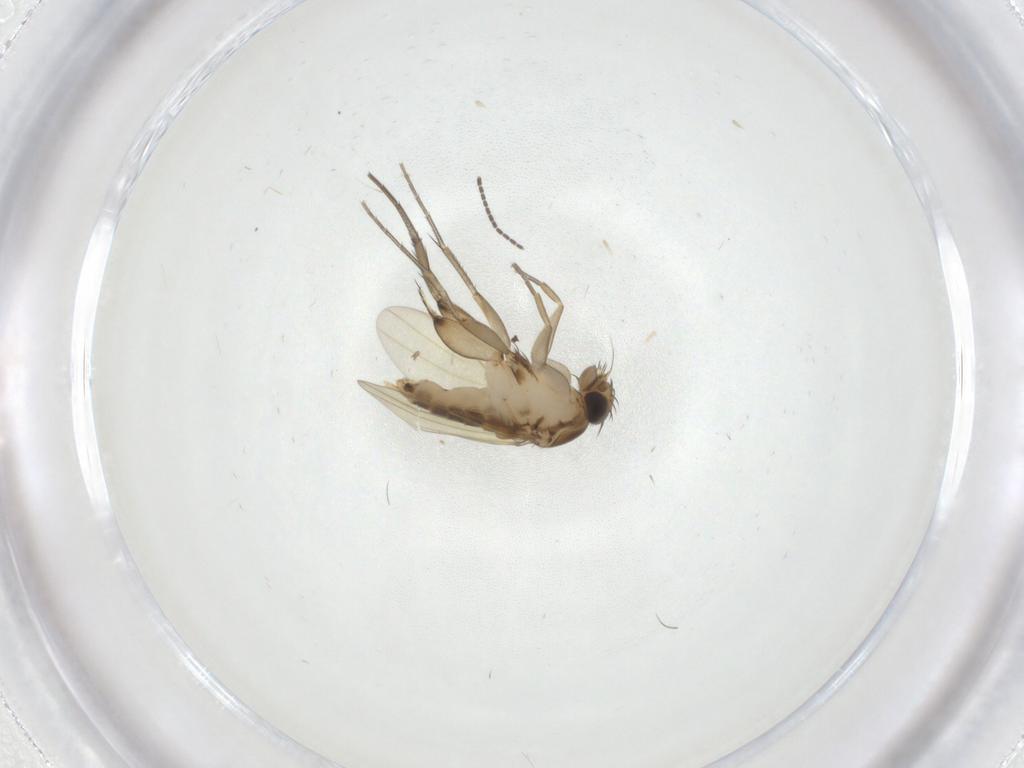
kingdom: Animalia
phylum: Arthropoda
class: Insecta
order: Diptera
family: Phoridae
